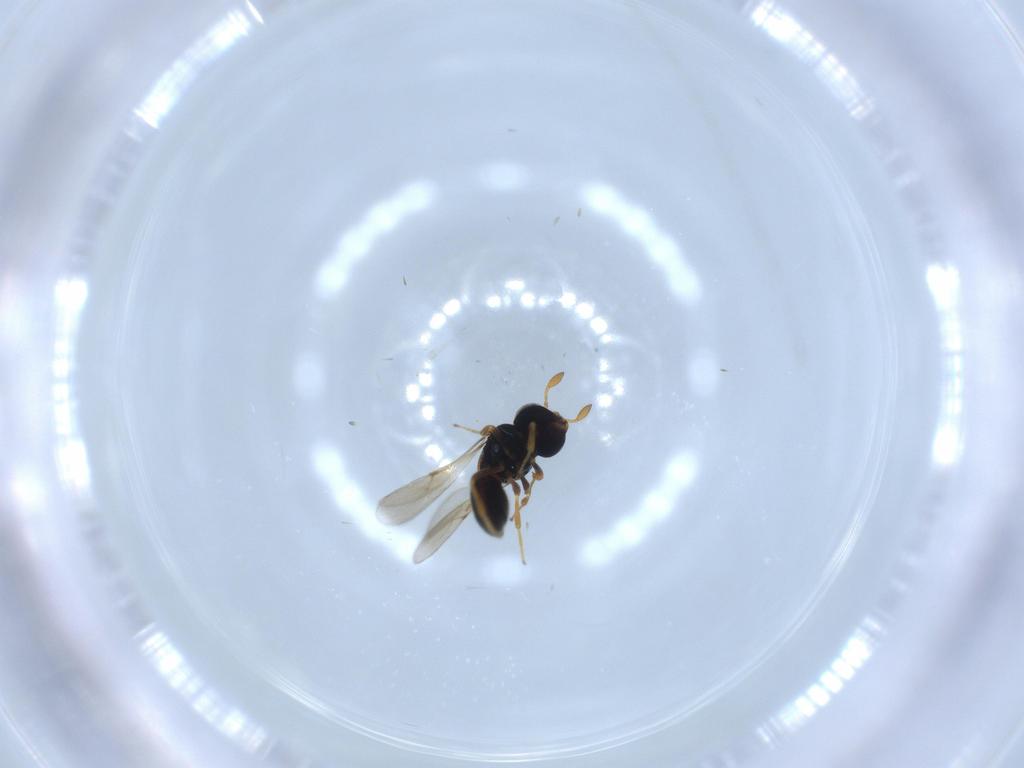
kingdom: Animalia
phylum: Arthropoda
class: Insecta
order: Hymenoptera
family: Scelionidae
